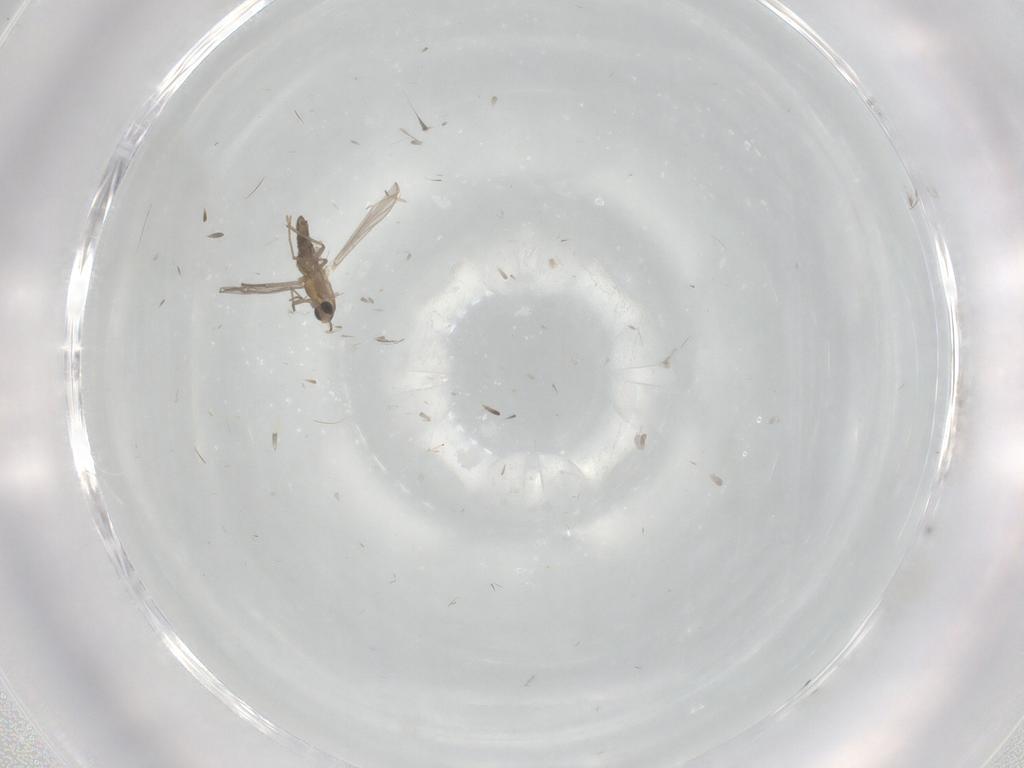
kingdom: Animalia
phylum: Arthropoda
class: Insecta
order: Diptera
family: Chironomidae
